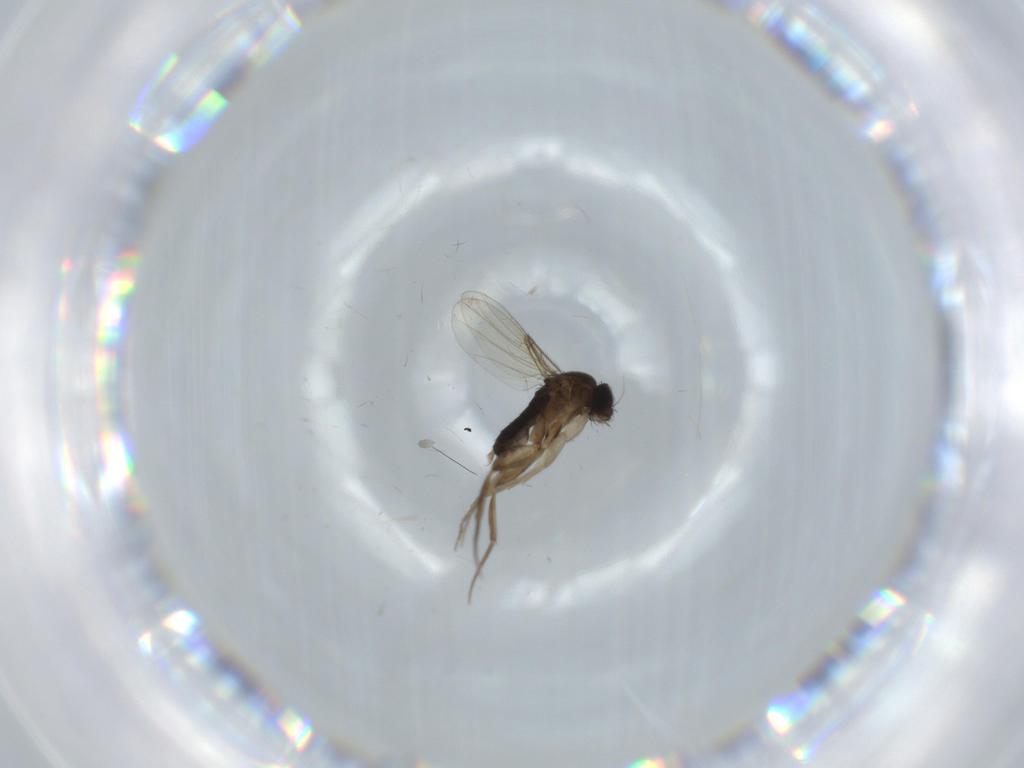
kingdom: Animalia
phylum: Arthropoda
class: Insecta
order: Diptera
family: Phoridae
